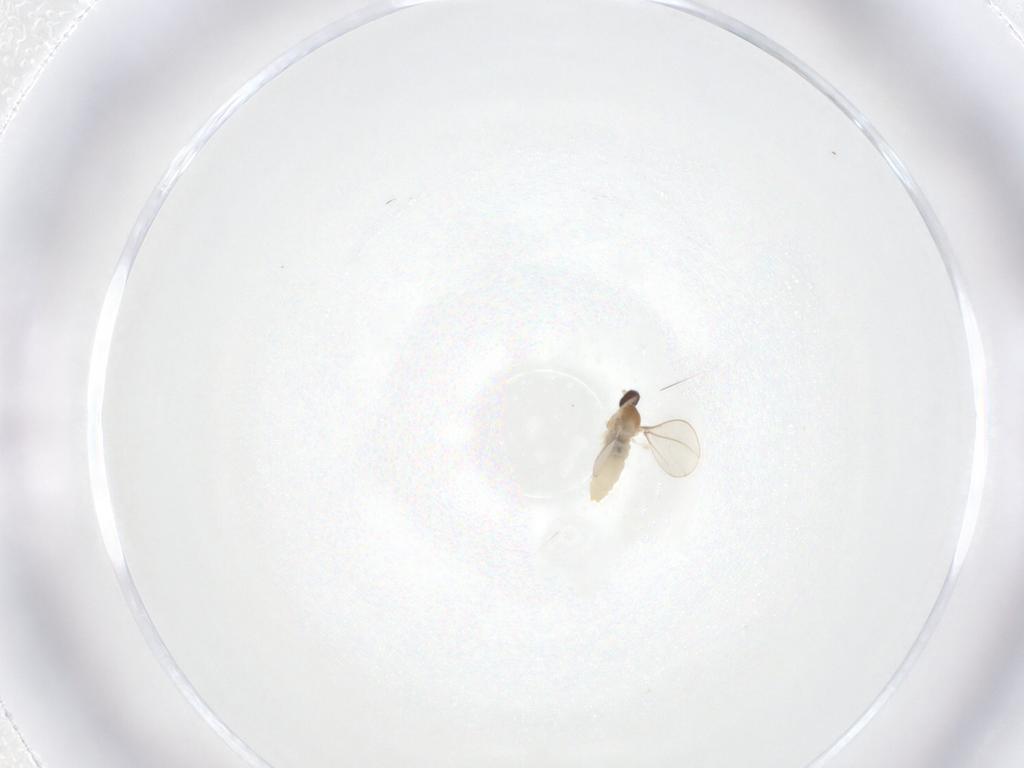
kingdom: Animalia
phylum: Arthropoda
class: Insecta
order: Diptera
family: Cecidomyiidae
